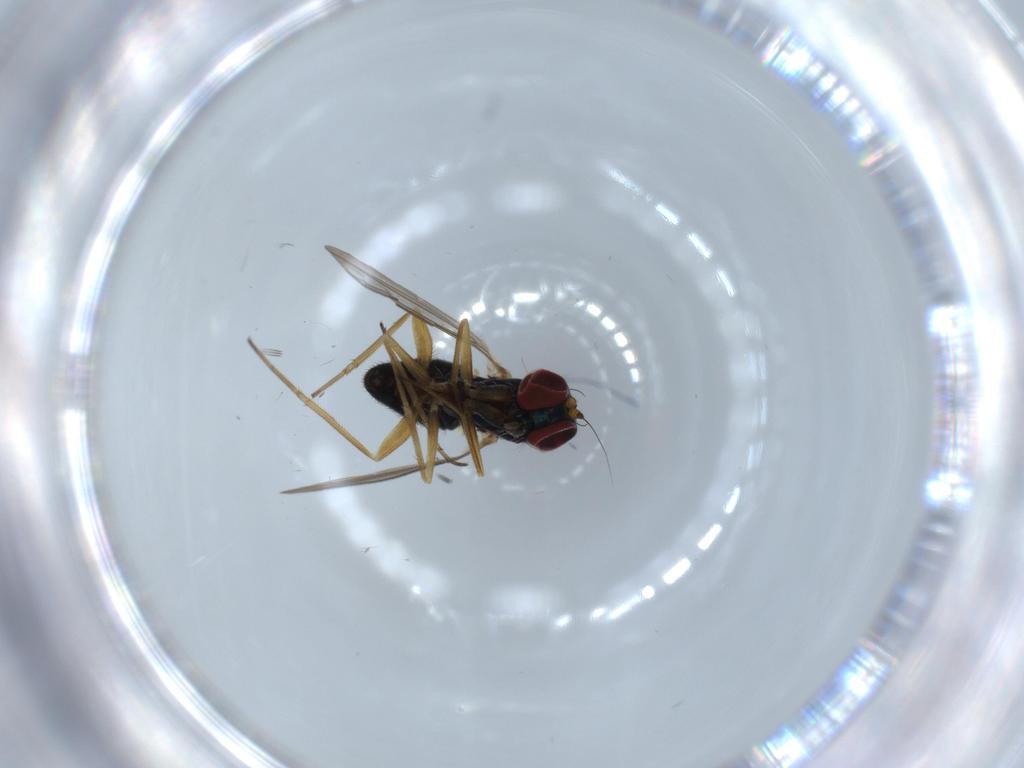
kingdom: Animalia
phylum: Arthropoda
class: Insecta
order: Diptera
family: Dolichopodidae
